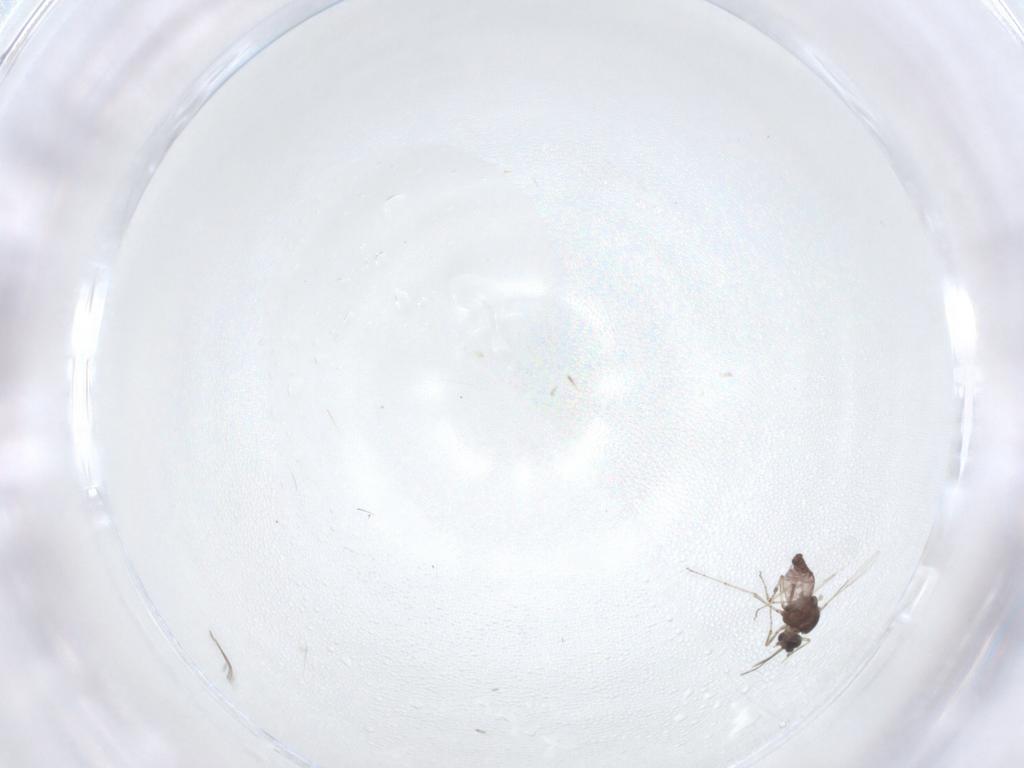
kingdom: Animalia
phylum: Arthropoda
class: Insecta
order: Diptera
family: Ceratopogonidae
